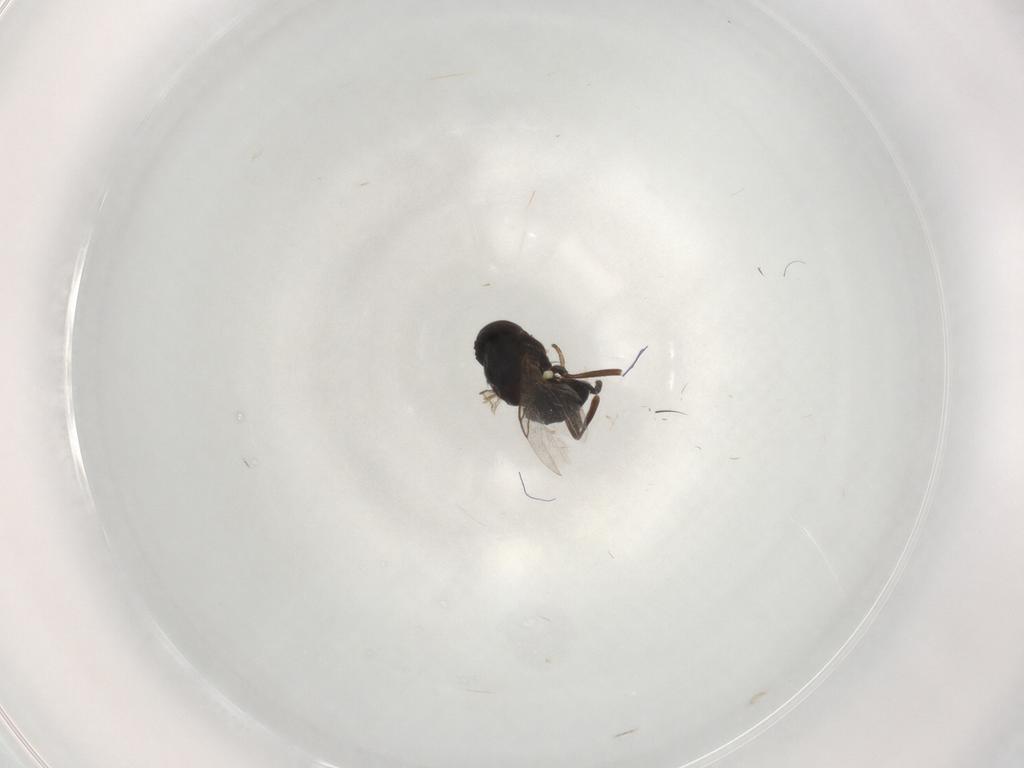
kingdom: Animalia
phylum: Arthropoda
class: Insecta
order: Diptera
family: Agromyzidae
